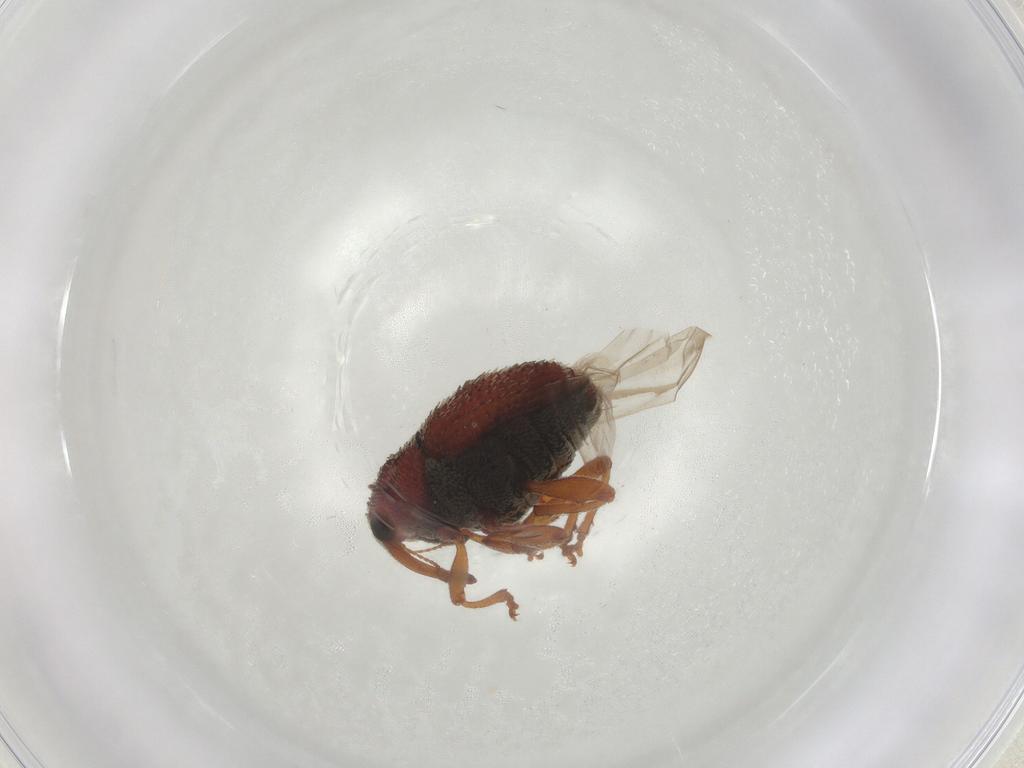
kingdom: Animalia
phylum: Arthropoda
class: Insecta
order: Coleoptera
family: Curculionidae
